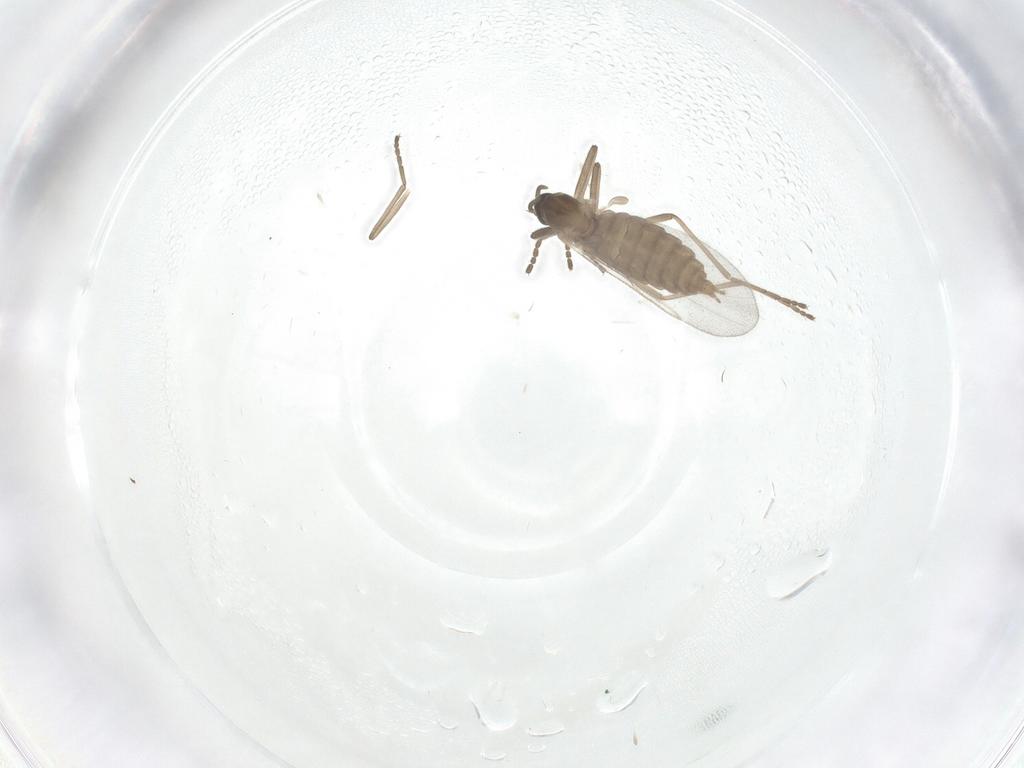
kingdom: Animalia
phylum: Arthropoda
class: Insecta
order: Diptera
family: Cecidomyiidae
